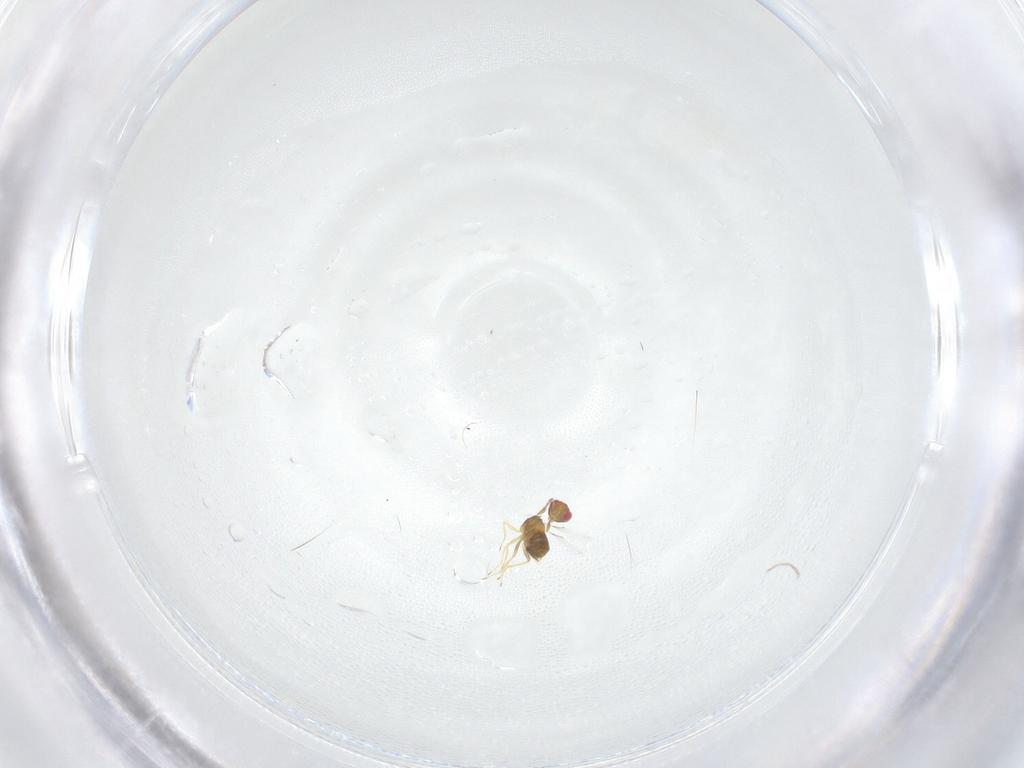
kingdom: Animalia
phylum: Arthropoda
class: Insecta
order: Hymenoptera
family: Trichogrammatidae
